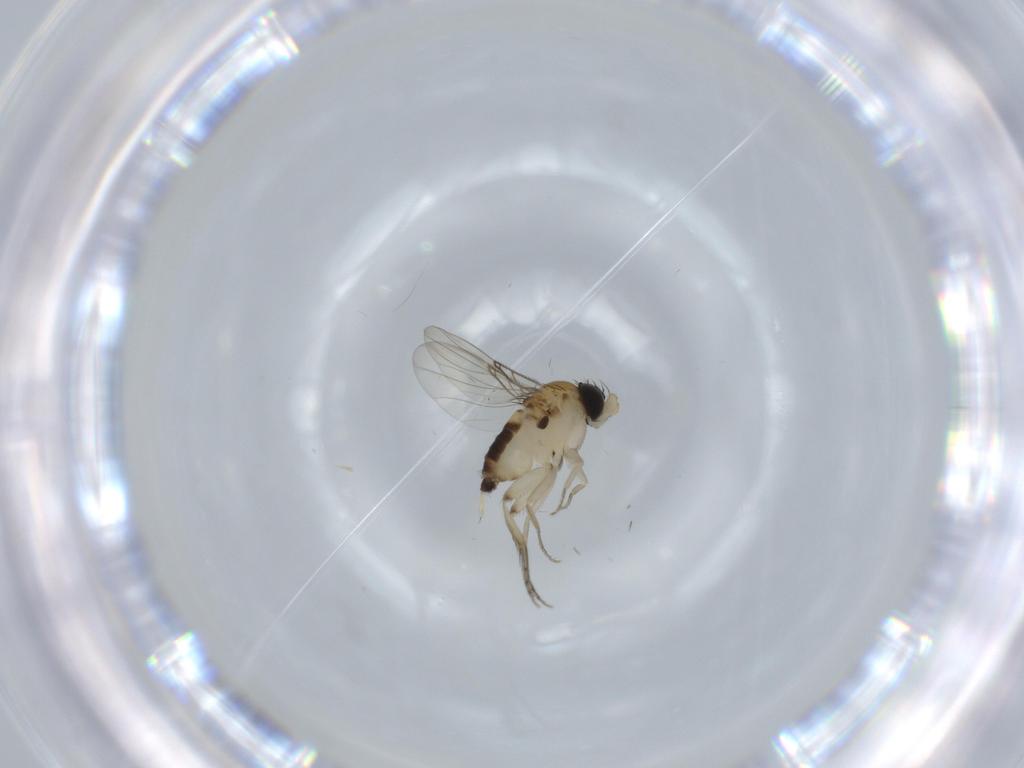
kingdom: Animalia
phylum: Arthropoda
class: Insecta
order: Diptera
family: Phoridae
